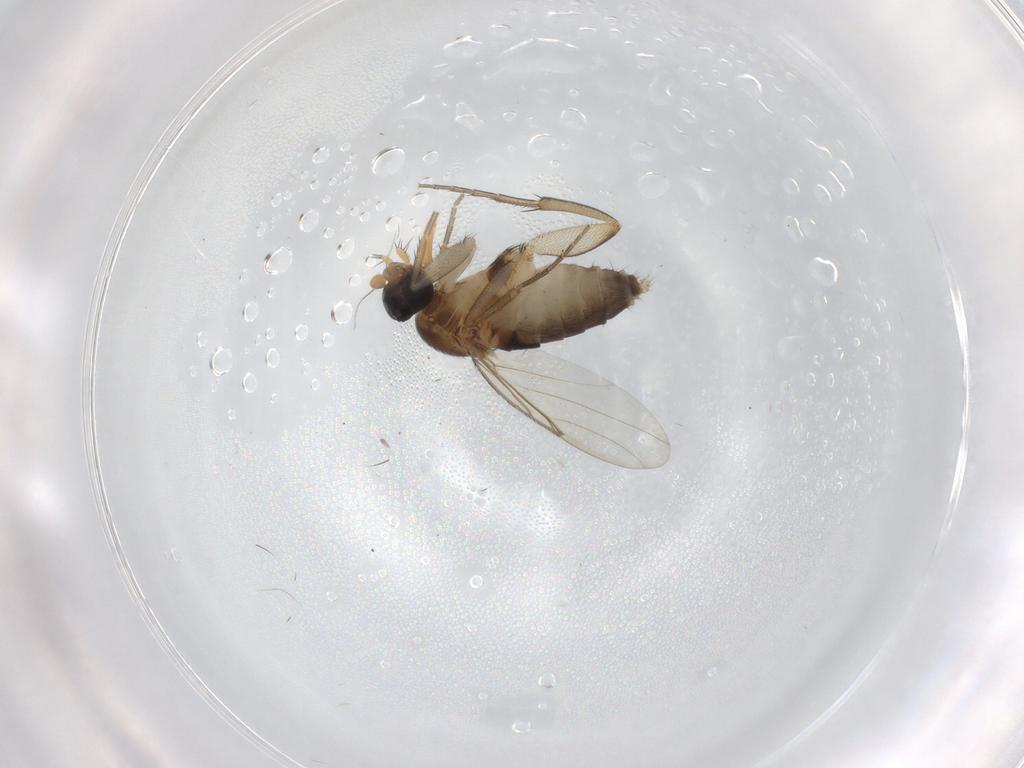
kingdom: Animalia
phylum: Arthropoda
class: Insecta
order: Diptera
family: Phoridae
